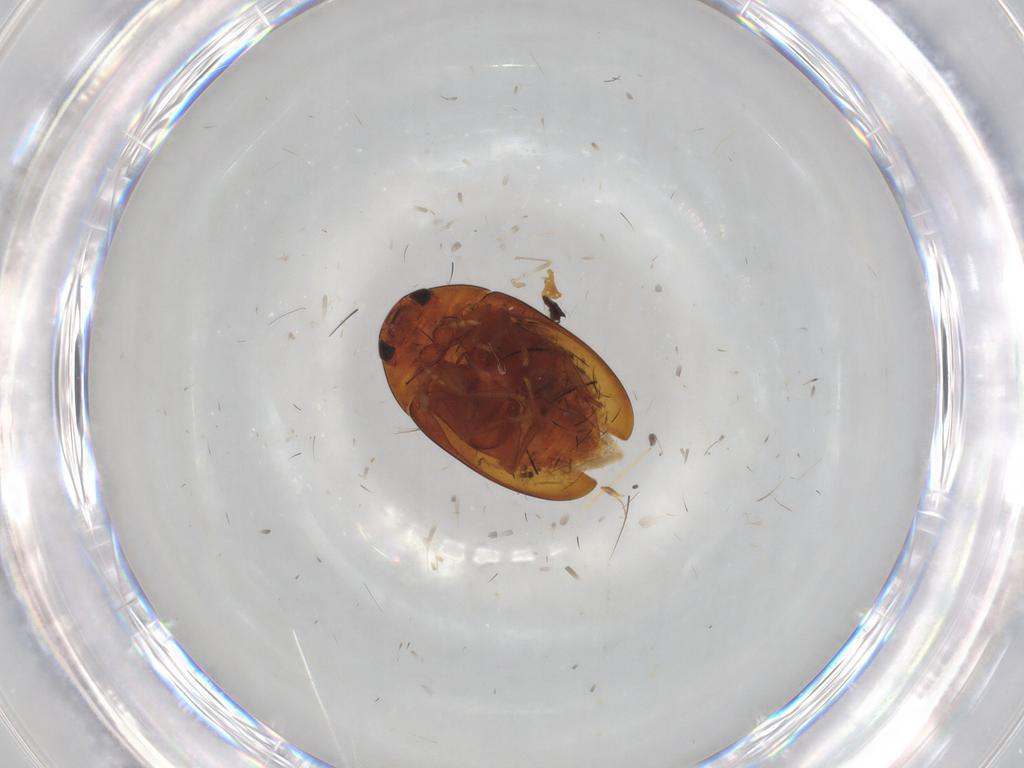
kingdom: Animalia
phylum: Arthropoda
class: Insecta
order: Coleoptera
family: Phalacridae
